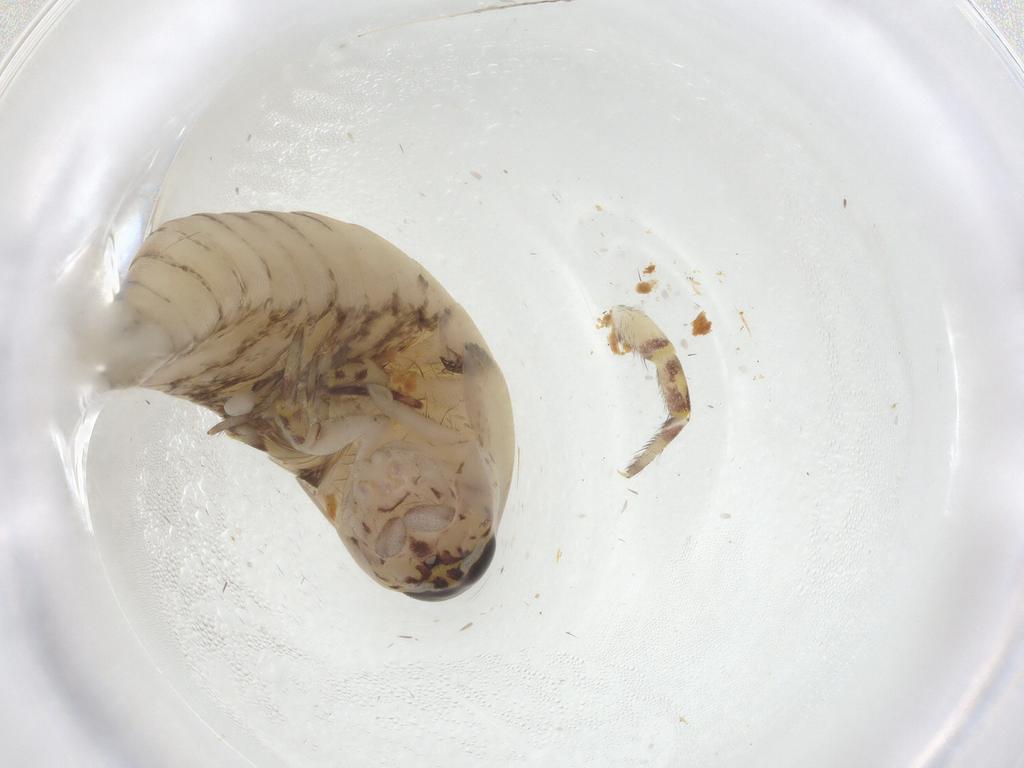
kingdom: Animalia
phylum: Arthropoda
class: Insecta
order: Archaeognatha
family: Meinertellidae
